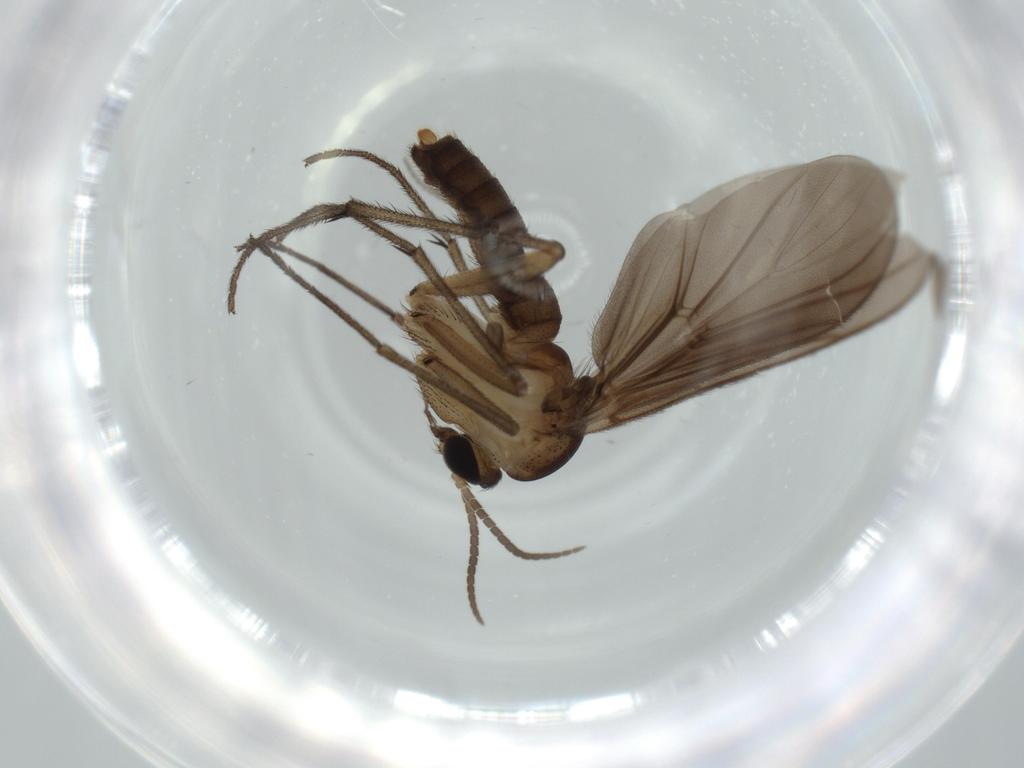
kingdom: Animalia
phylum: Arthropoda
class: Insecta
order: Diptera
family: Diadocidiidae
